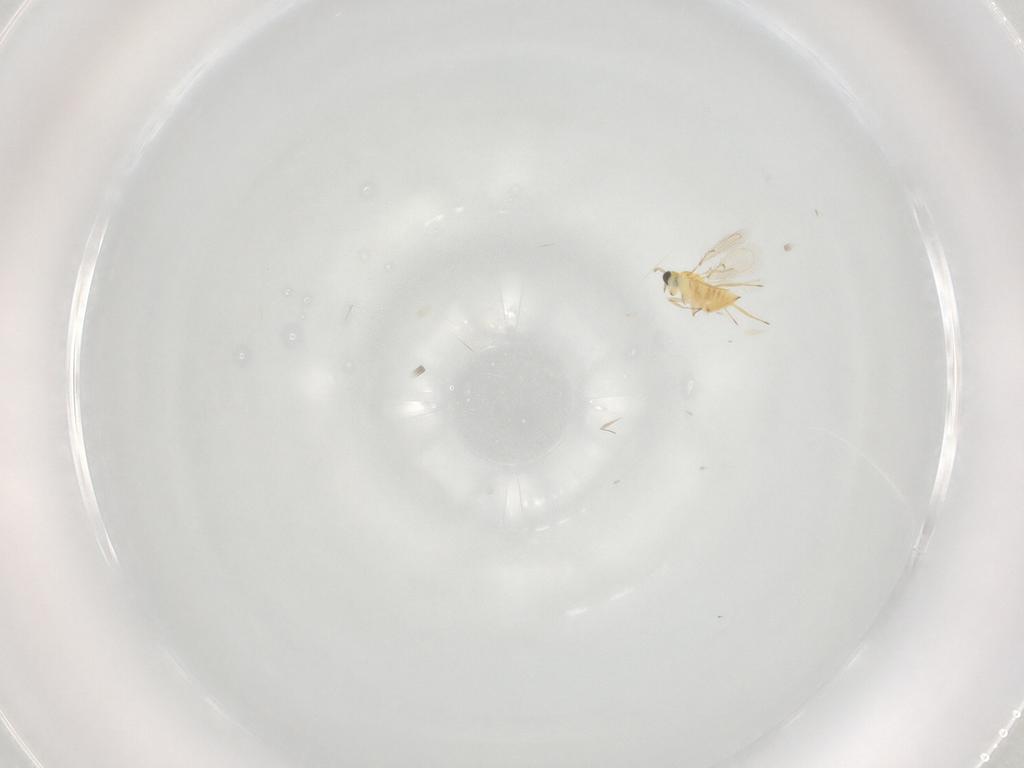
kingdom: Animalia
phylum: Arthropoda
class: Insecta
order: Hymenoptera
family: Trichogrammatidae
